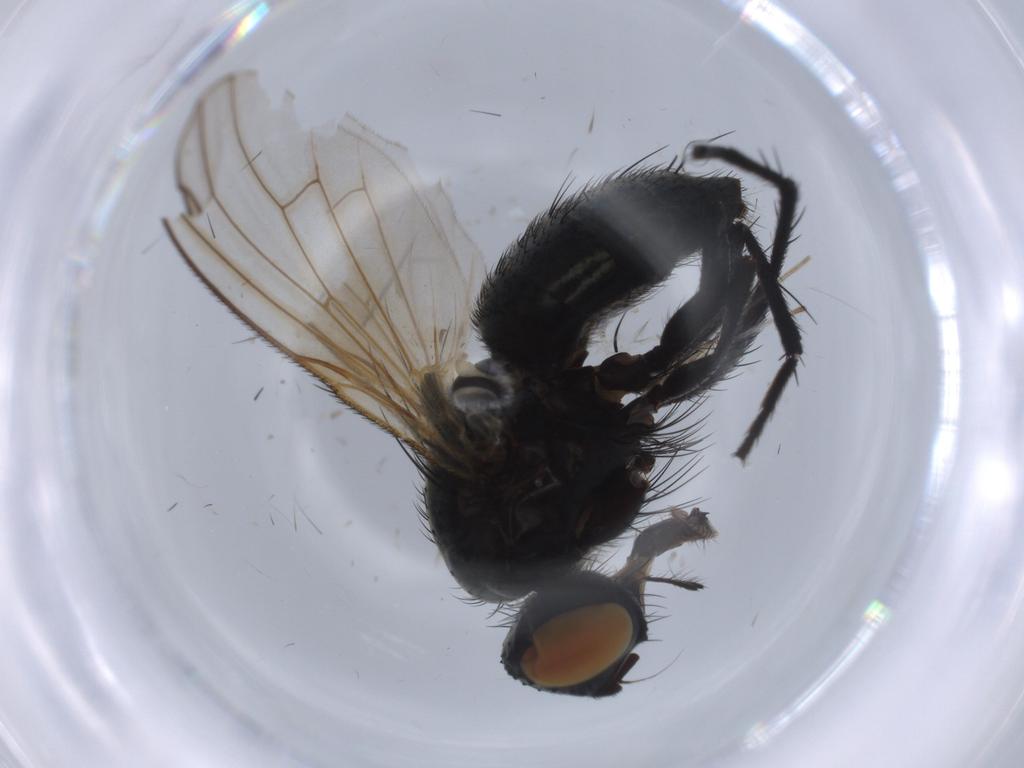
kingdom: Animalia
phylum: Arthropoda
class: Insecta
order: Diptera
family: Muscidae
